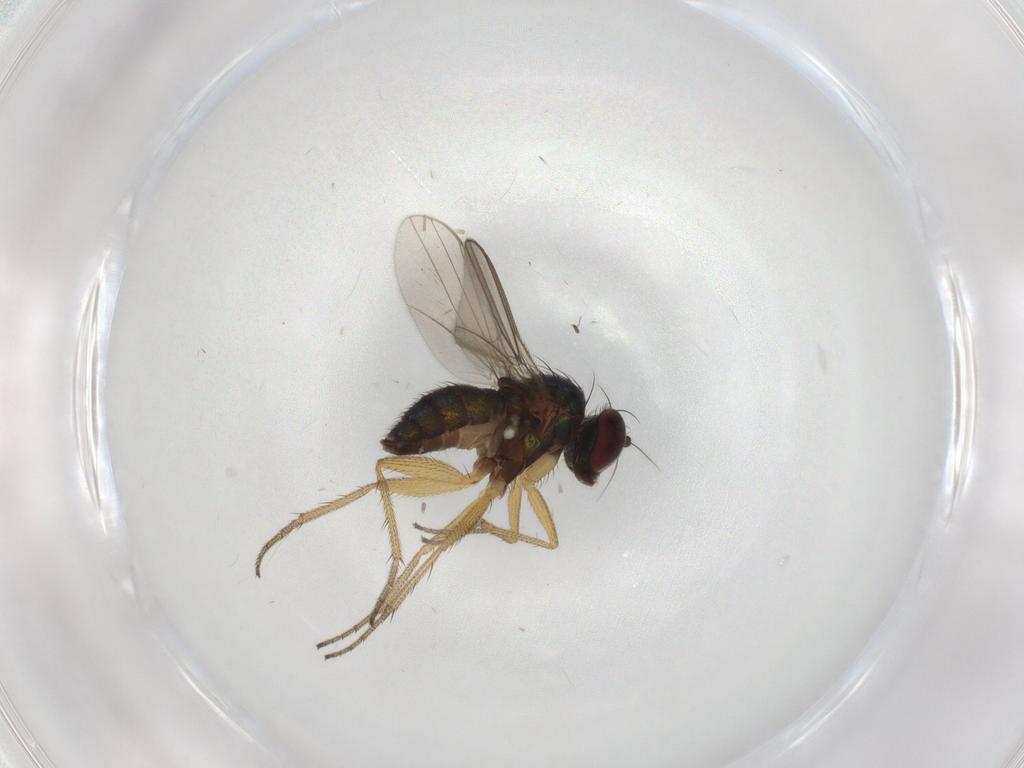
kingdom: Animalia
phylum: Arthropoda
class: Insecta
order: Diptera
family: Dolichopodidae
